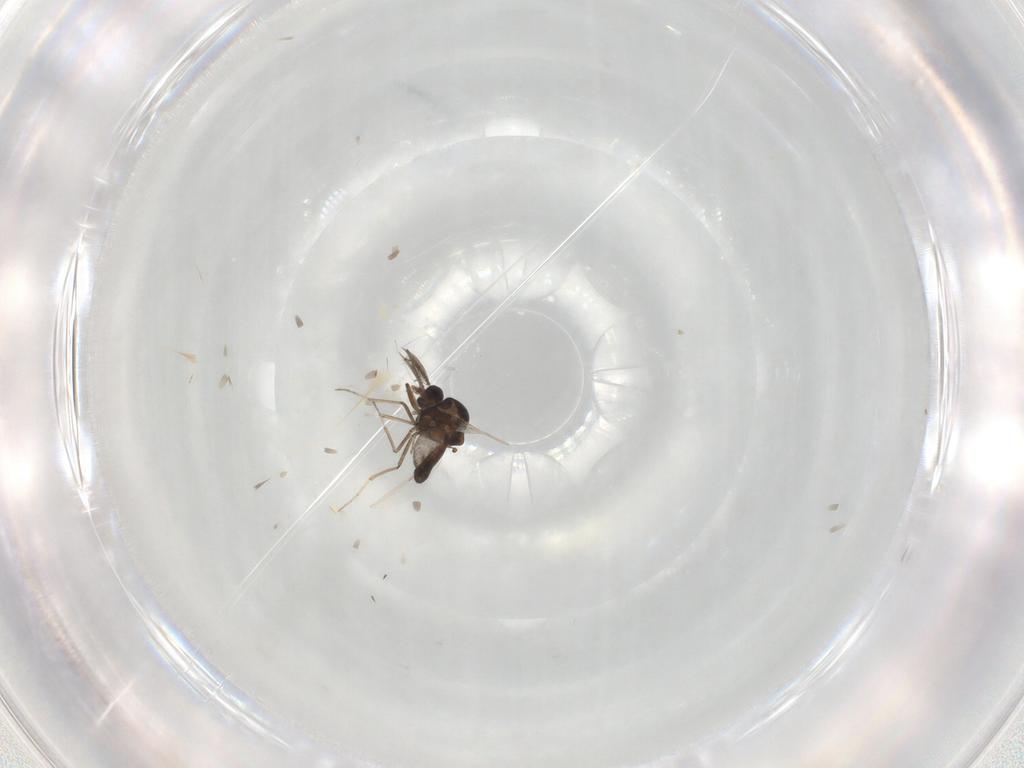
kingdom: Animalia
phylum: Arthropoda
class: Insecta
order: Diptera
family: Ceratopogonidae
